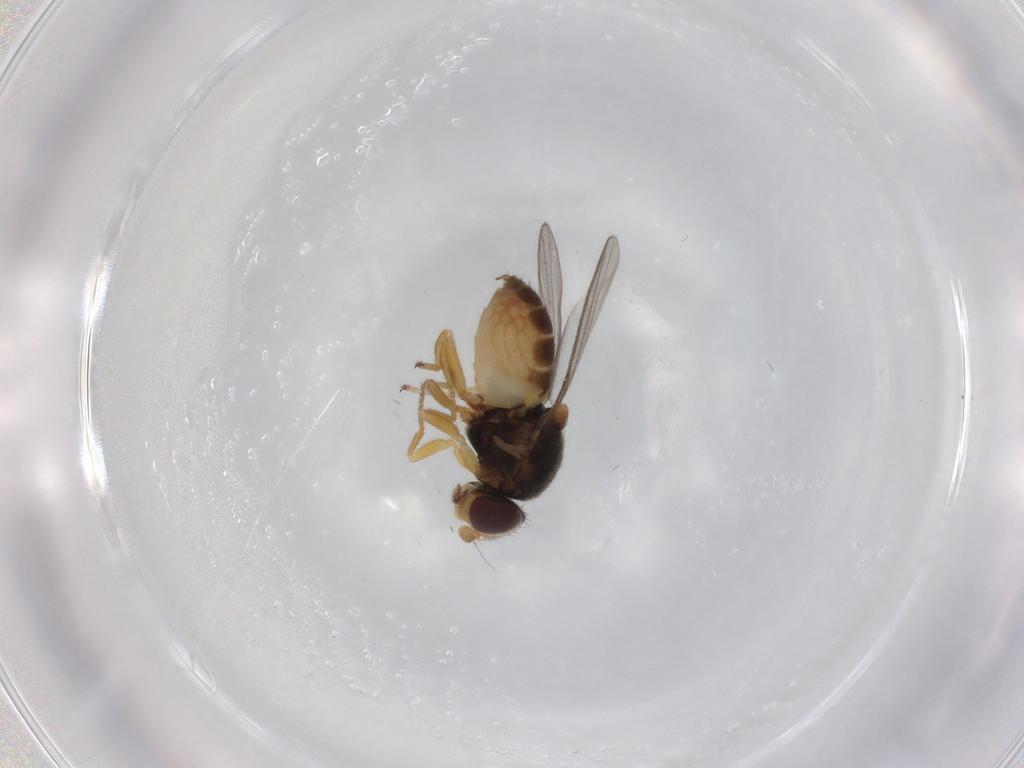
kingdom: Animalia
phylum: Arthropoda
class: Insecta
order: Diptera
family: Chloropidae
